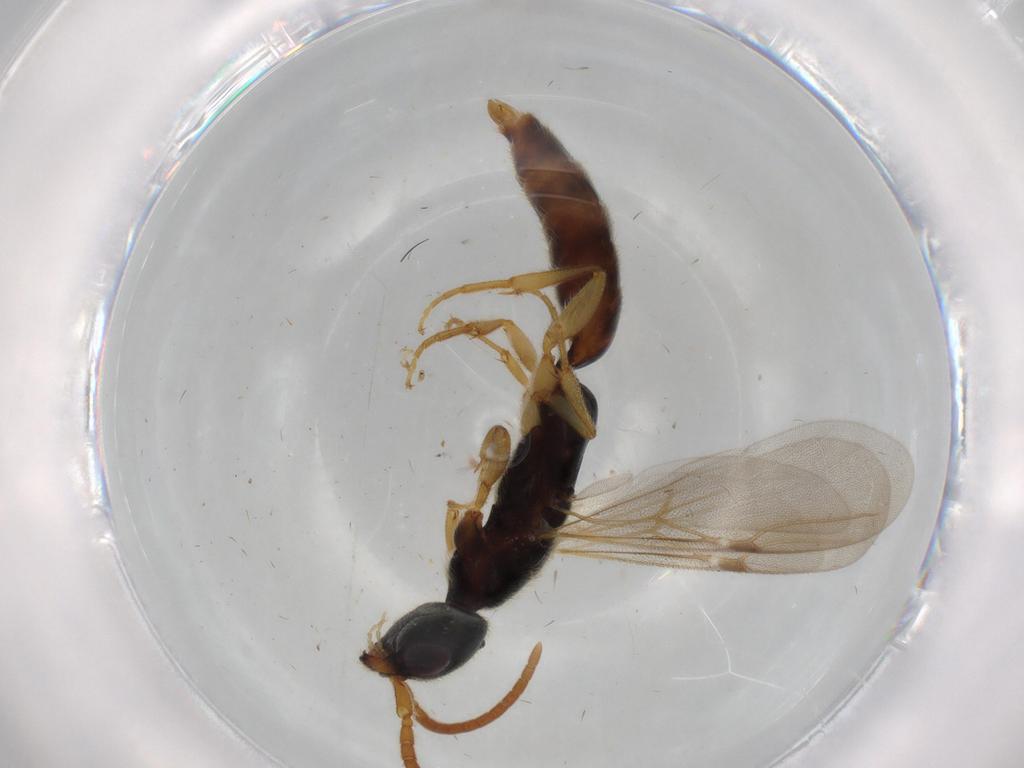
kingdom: Animalia
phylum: Arthropoda
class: Insecta
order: Hymenoptera
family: Bethylidae
